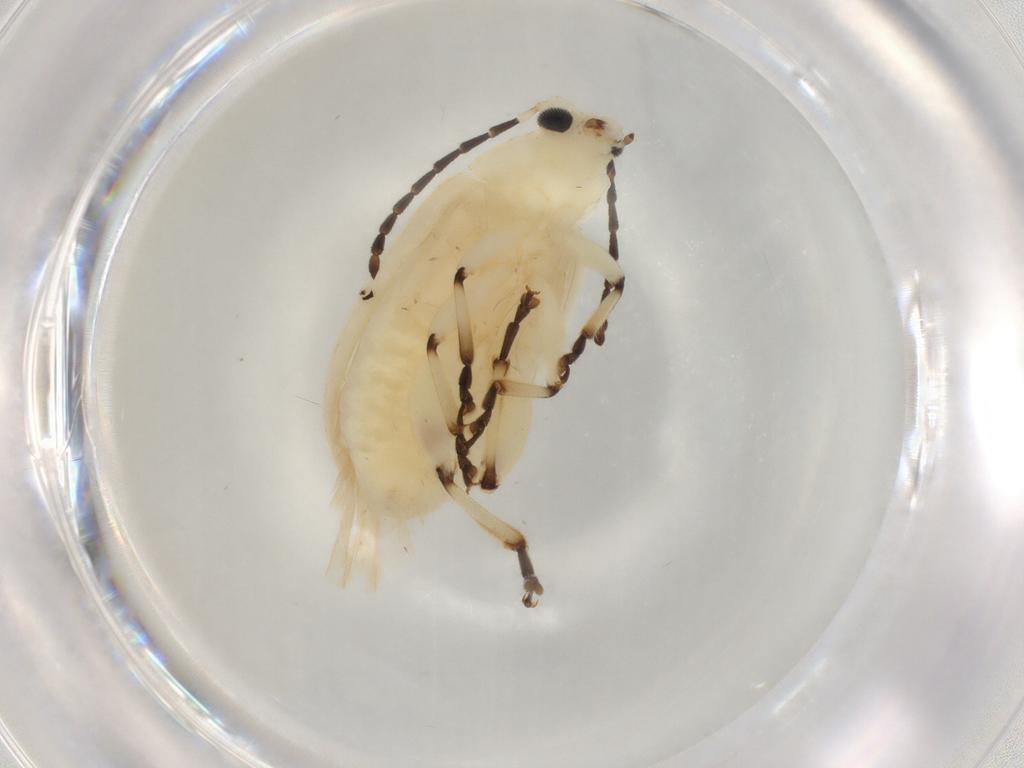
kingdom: Animalia
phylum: Arthropoda
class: Insecta
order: Coleoptera
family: Chrysomelidae
